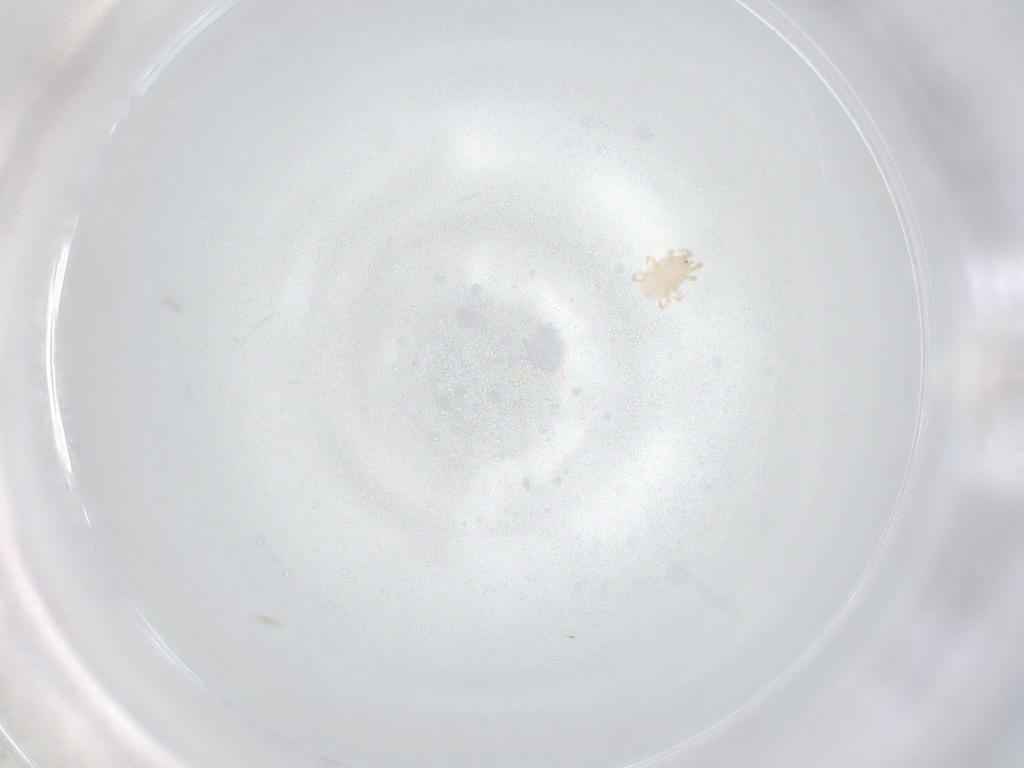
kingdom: Animalia
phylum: Arthropoda
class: Arachnida
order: Mesostigmata
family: Melicharidae
